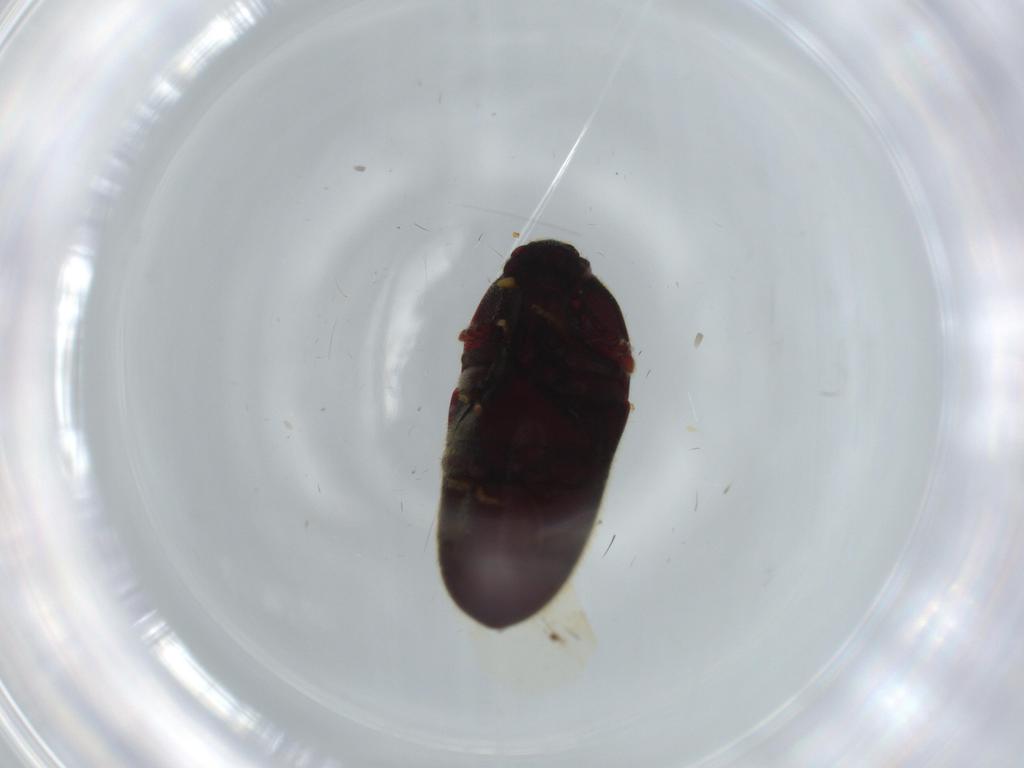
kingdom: Animalia
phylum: Arthropoda
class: Insecta
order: Coleoptera
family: Throscidae
